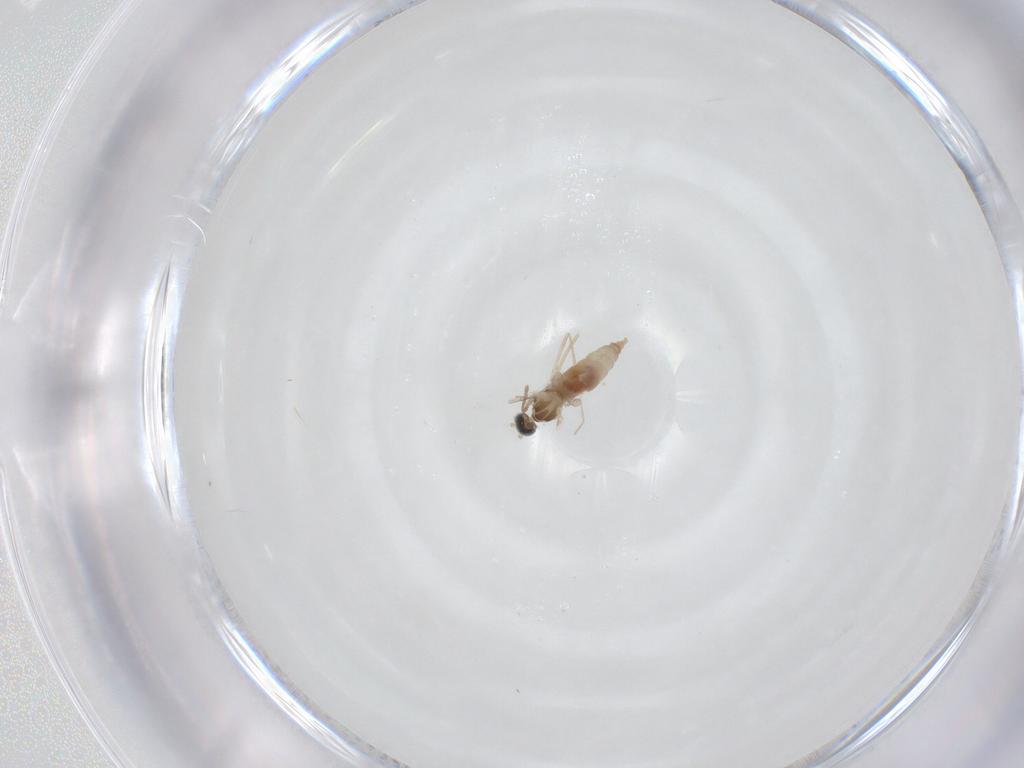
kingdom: Animalia
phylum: Arthropoda
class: Insecta
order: Diptera
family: Cecidomyiidae
